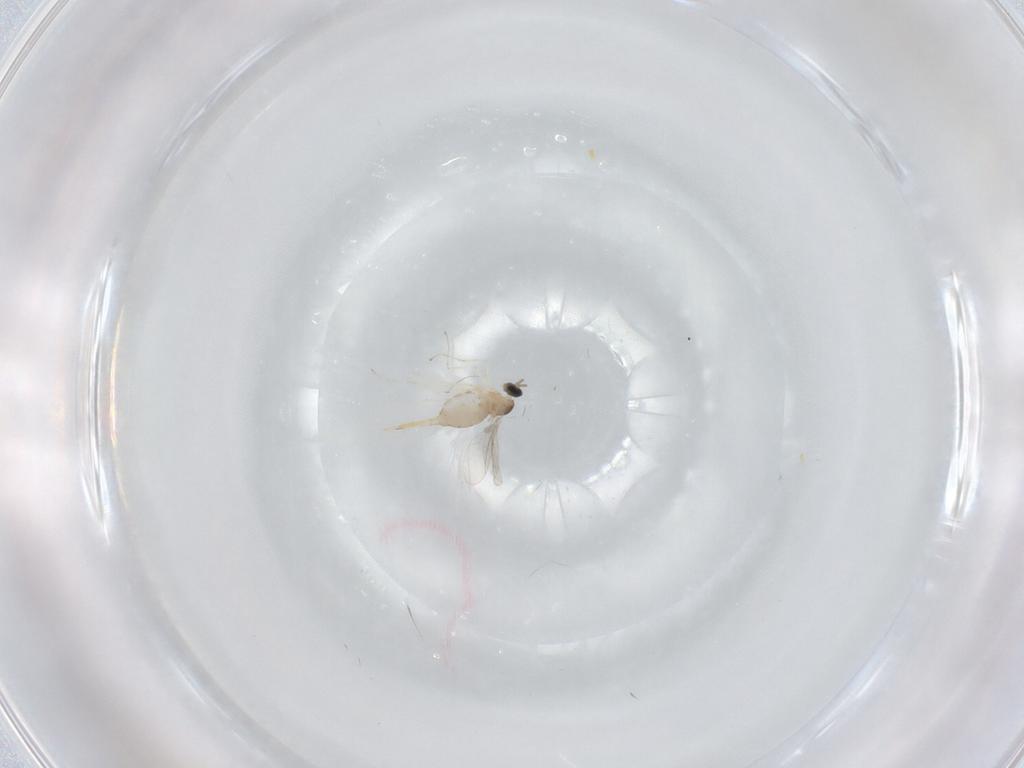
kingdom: Animalia
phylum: Arthropoda
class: Insecta
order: Diptera
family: Cecidomyiidae
